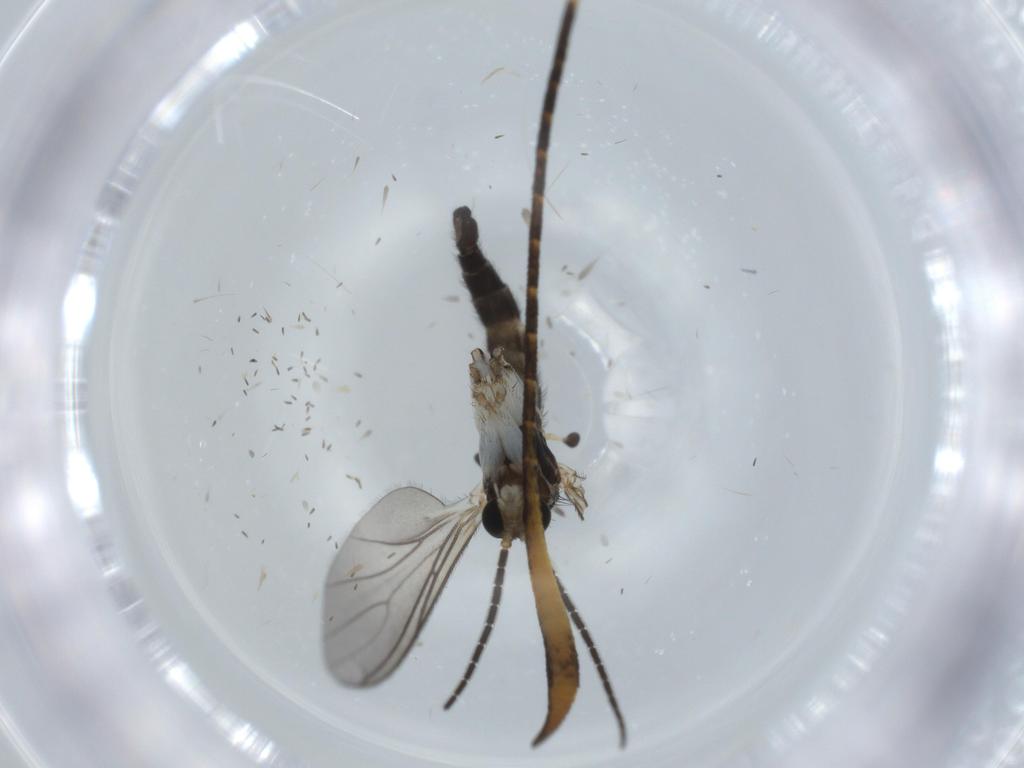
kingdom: Animalia
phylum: Arthropoda
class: Insecta
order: Diptera
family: Sciaridae
